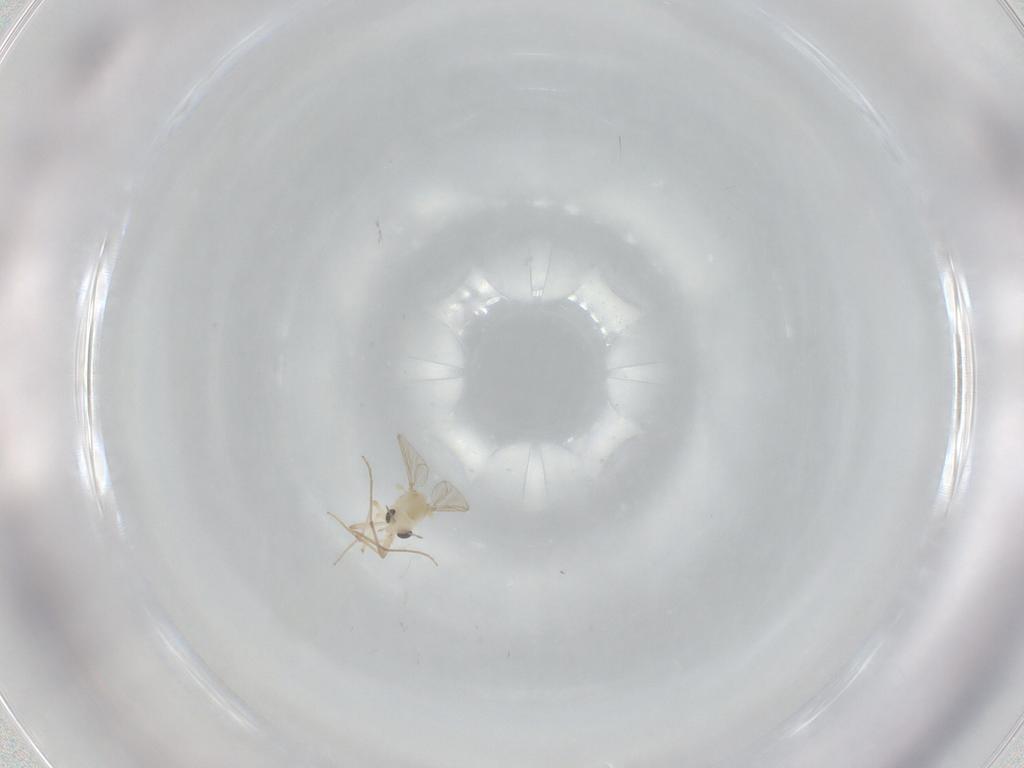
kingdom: Animalia
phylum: Arthropoda
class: Insecta
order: Diptera
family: Chironomidae
